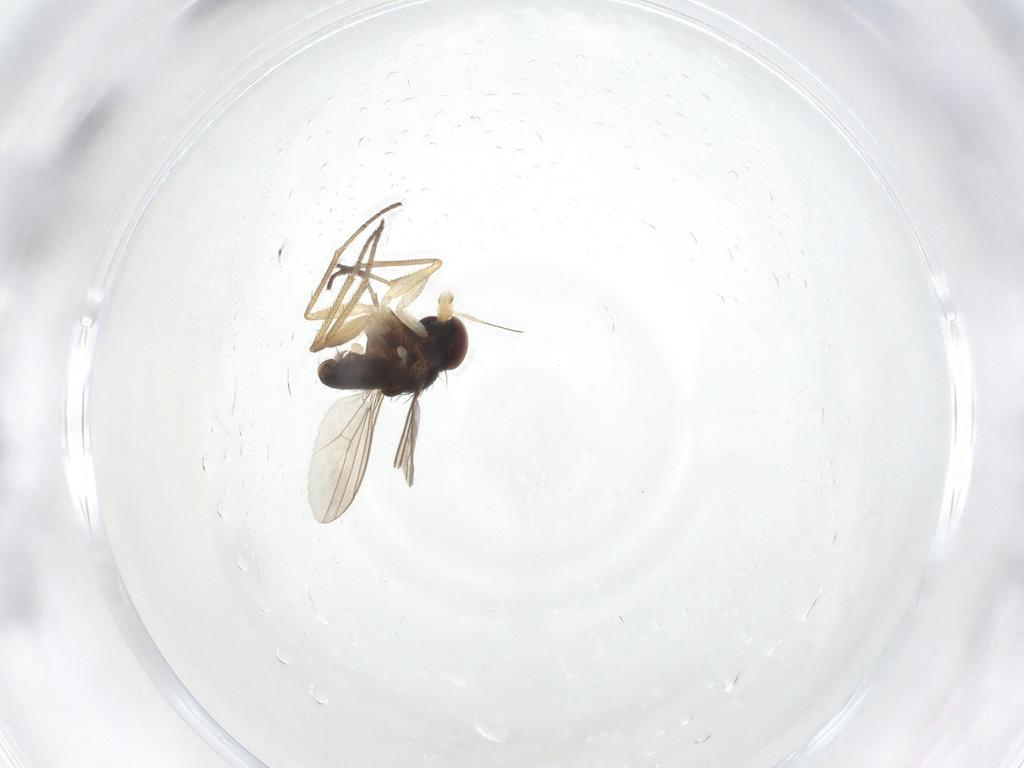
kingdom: Animalia
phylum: Arthropoda
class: Insecta
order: Diptera
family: Dolichopodidae
